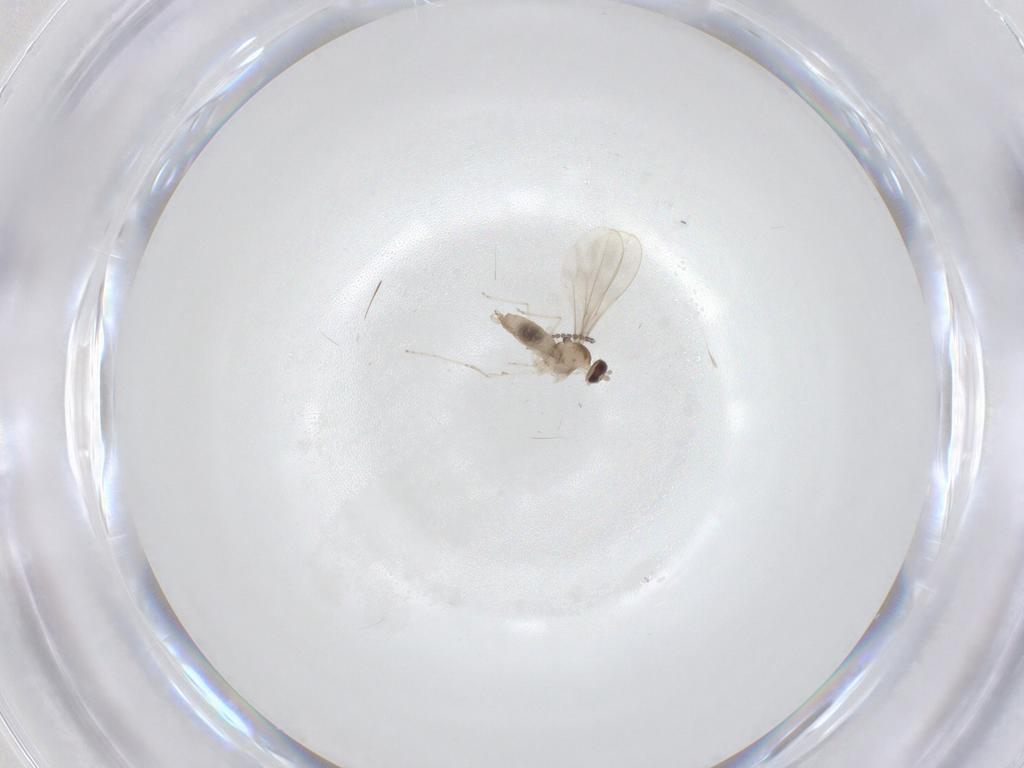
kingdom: Animalia
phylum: Arthropoda
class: Insecta
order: Diptera
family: Cecidomyiidae
